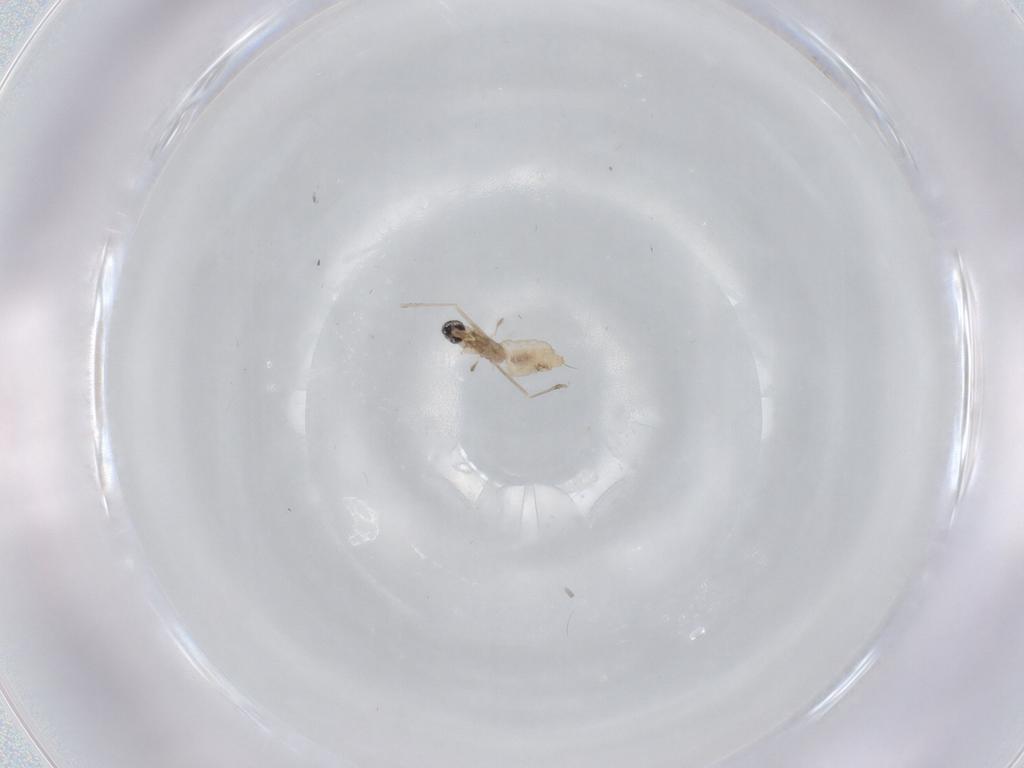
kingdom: Animalia
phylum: Arthropoda
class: Insecta
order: Diptera
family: Cecidomyiidae
